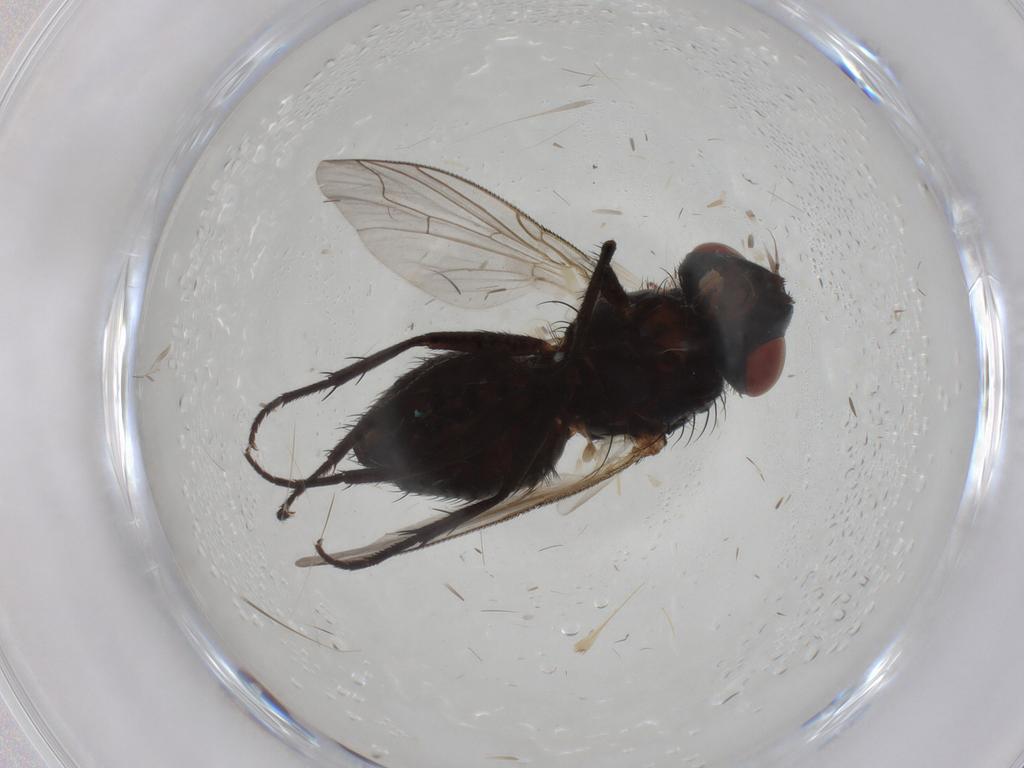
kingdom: Animalia
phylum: Arthropoda
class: Insecta
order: Diptera
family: Sarcophagidae
